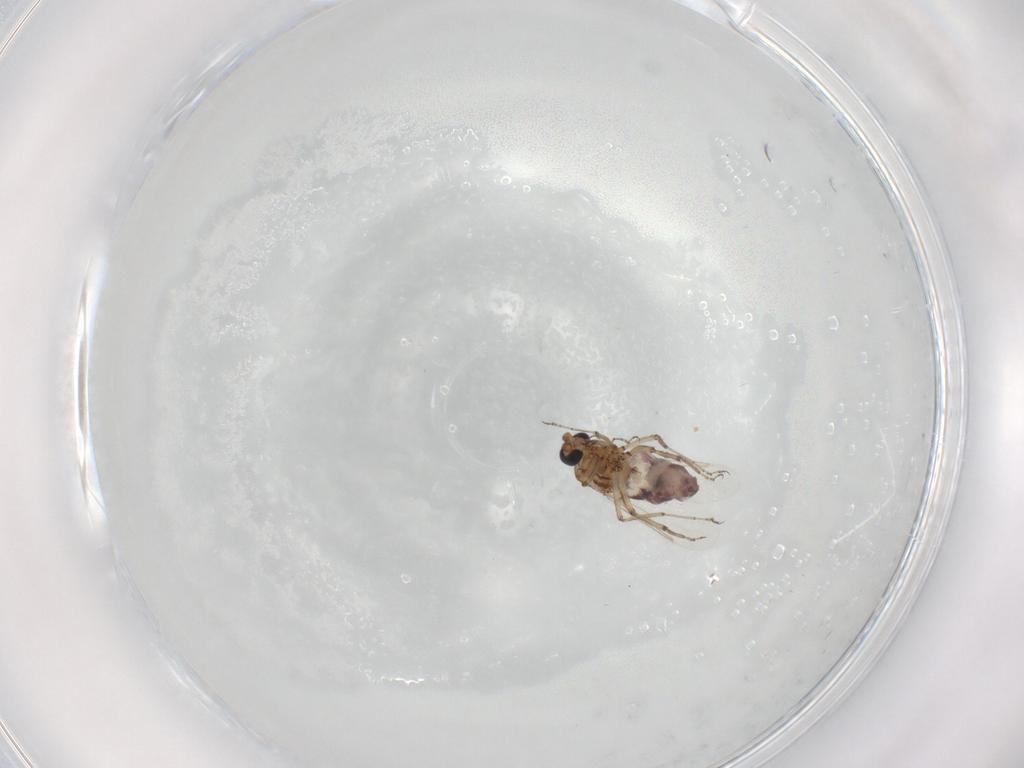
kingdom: Animalia
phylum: Arthropoda
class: Insecta
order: Diptera
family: Ceratopogonidae
